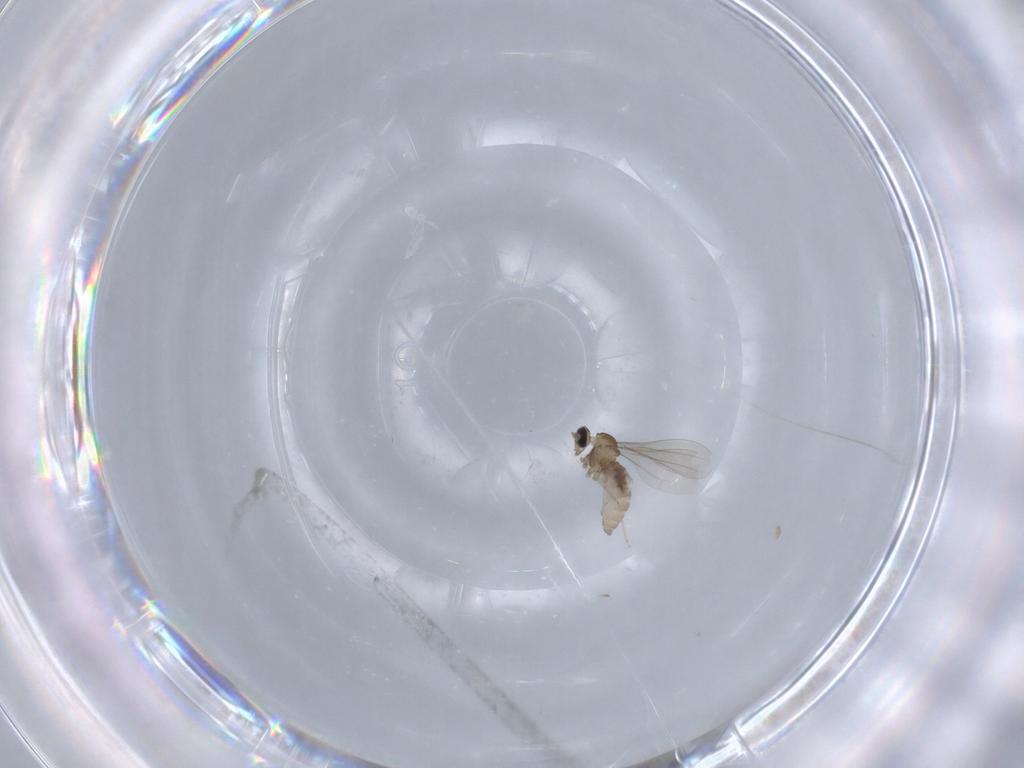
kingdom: Animalia
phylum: Arthropoda
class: Insecta
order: Diptera
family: Cecidomyiidae
